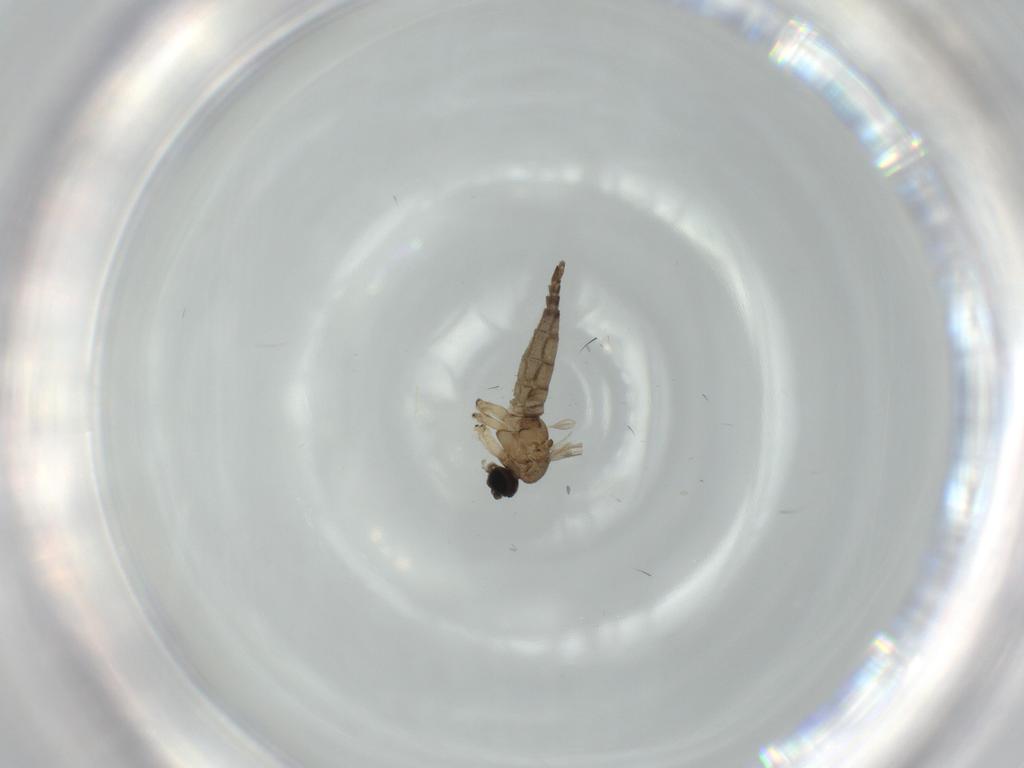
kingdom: Animalia
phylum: Arthropoda
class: Insecta
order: Diptera
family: Sciaridae
